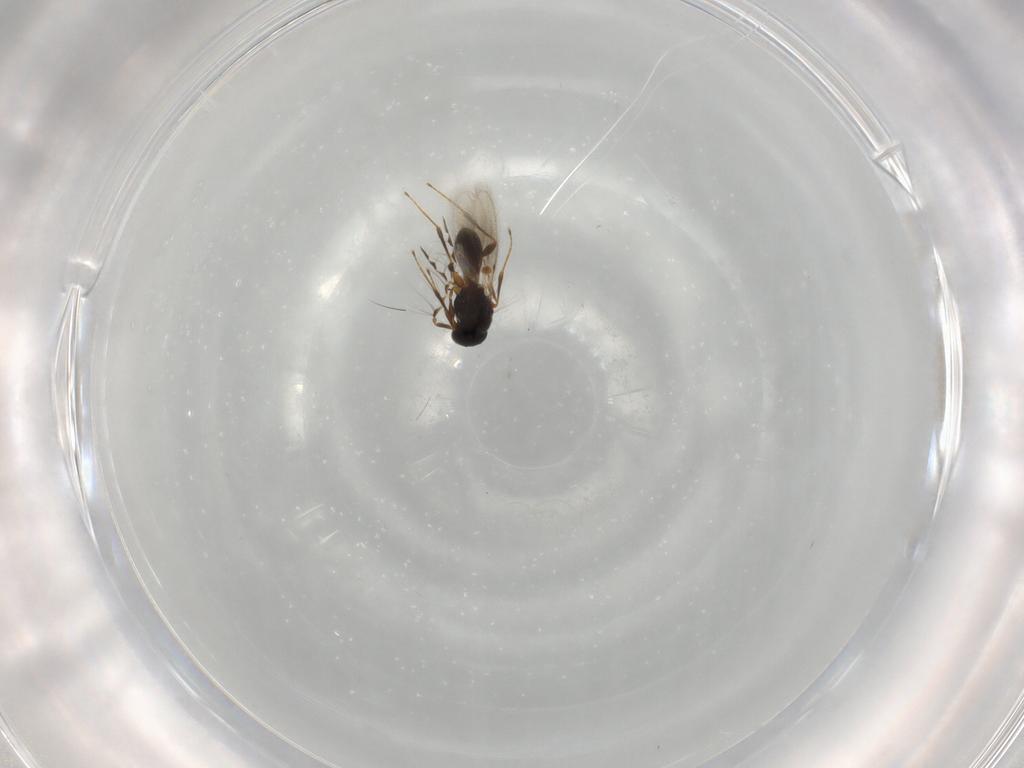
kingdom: Animalia
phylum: Arthropoda
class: Insecta
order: Hymenoptera
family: Platygastridae
